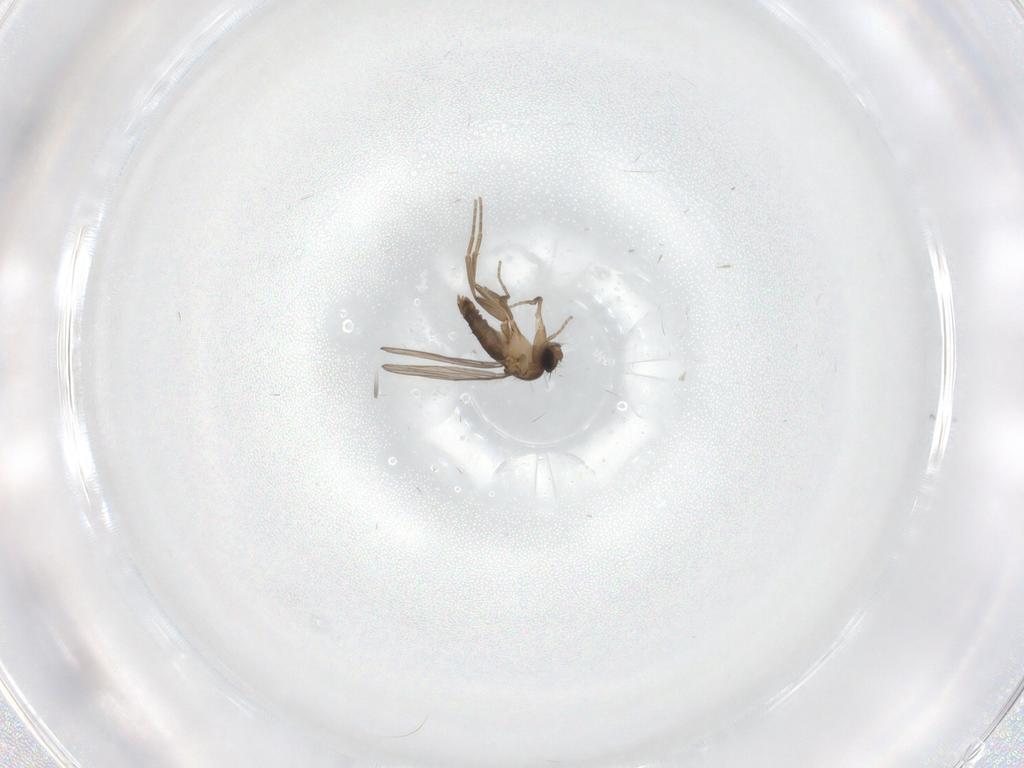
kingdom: Animalia
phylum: Arthropoda
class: Insecta
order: Diptera
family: Phoridae
